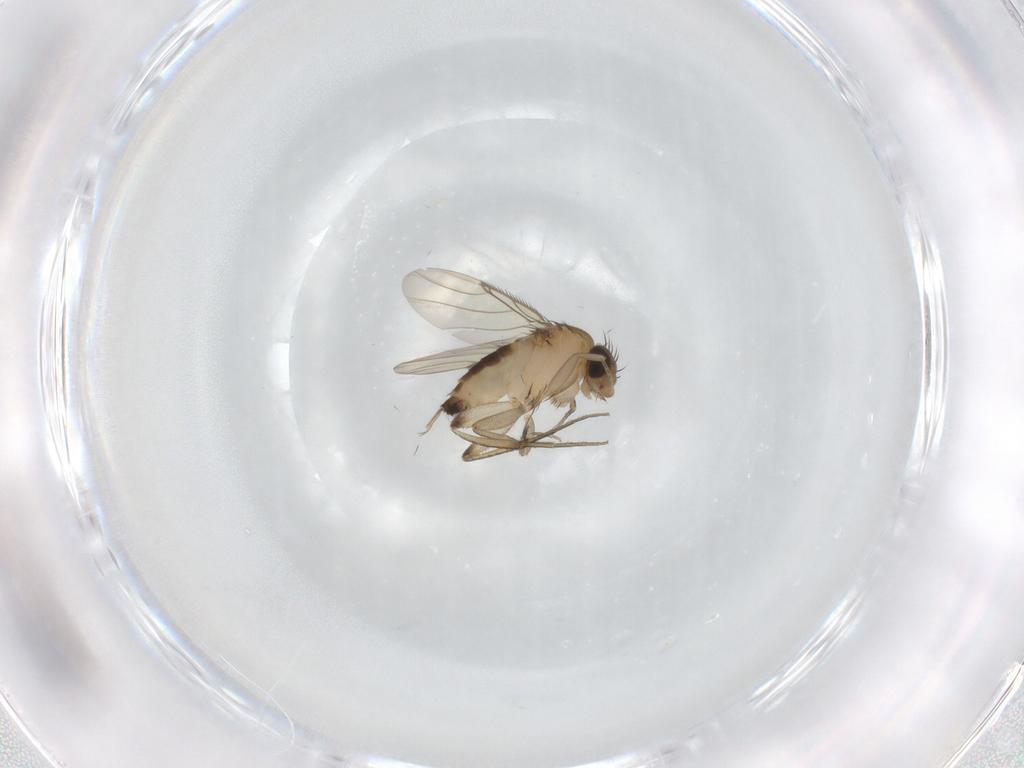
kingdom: Animalia
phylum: Arthropoda
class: Insecta
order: Diptera
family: Phoridae
